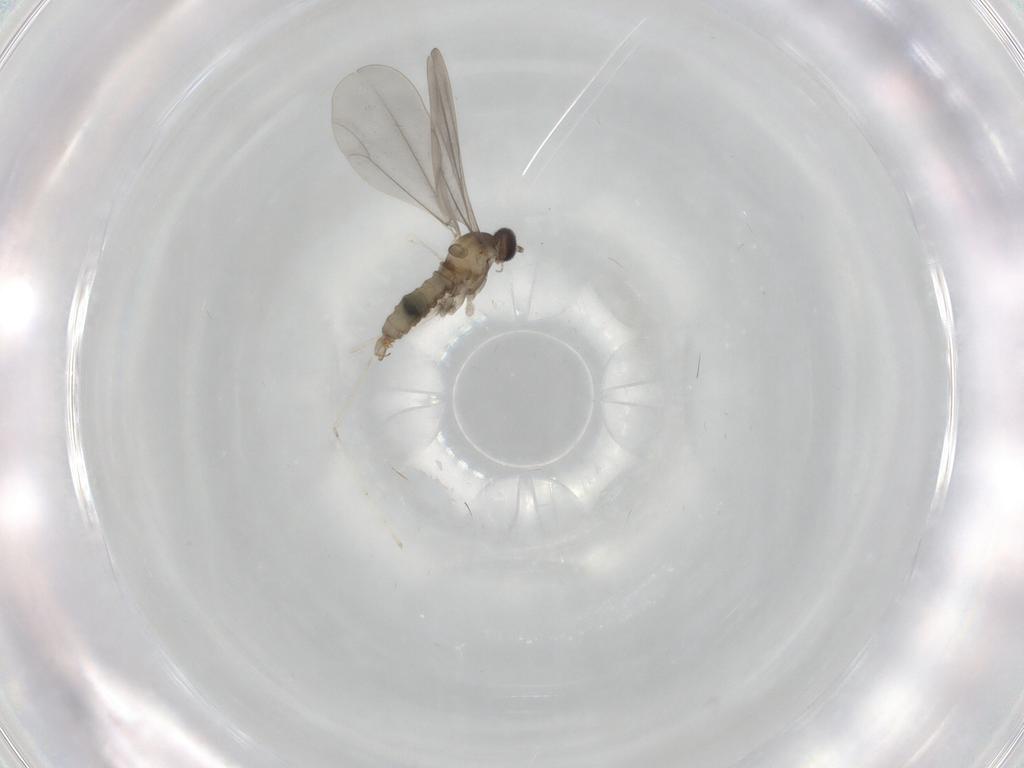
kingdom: Animalia
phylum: Arthropoda
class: Insecta
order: Diptera
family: Cecidomyiidae
